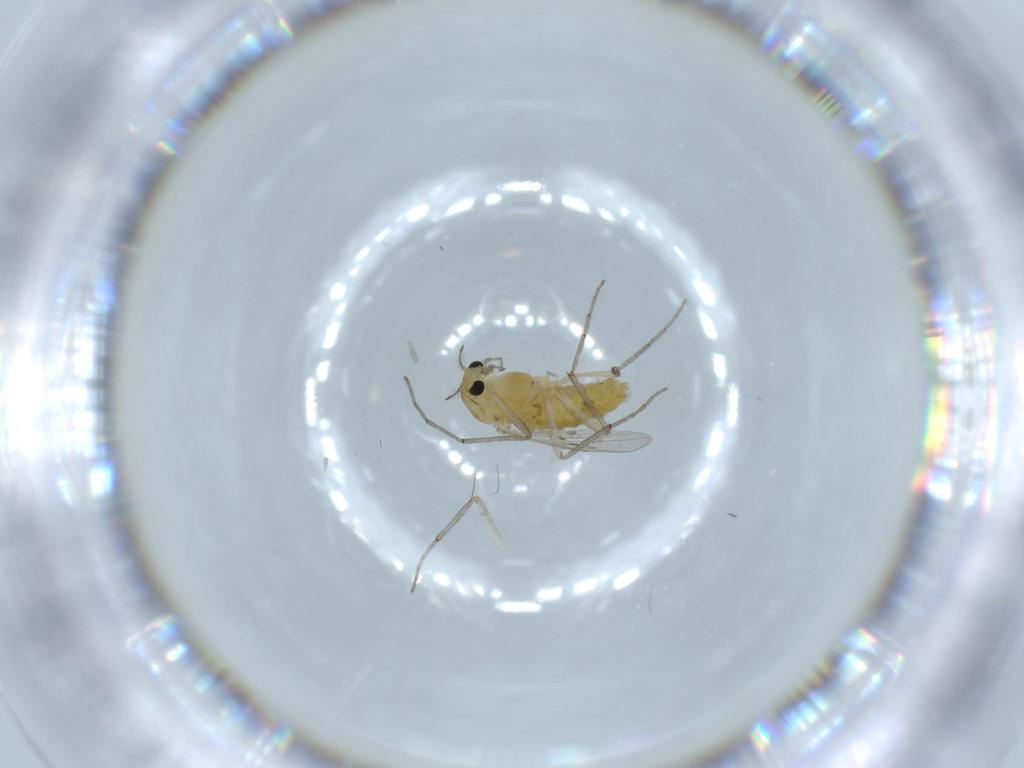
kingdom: Animalia
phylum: Arthropoda
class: Insecta
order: Diptera
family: Chironomidae
